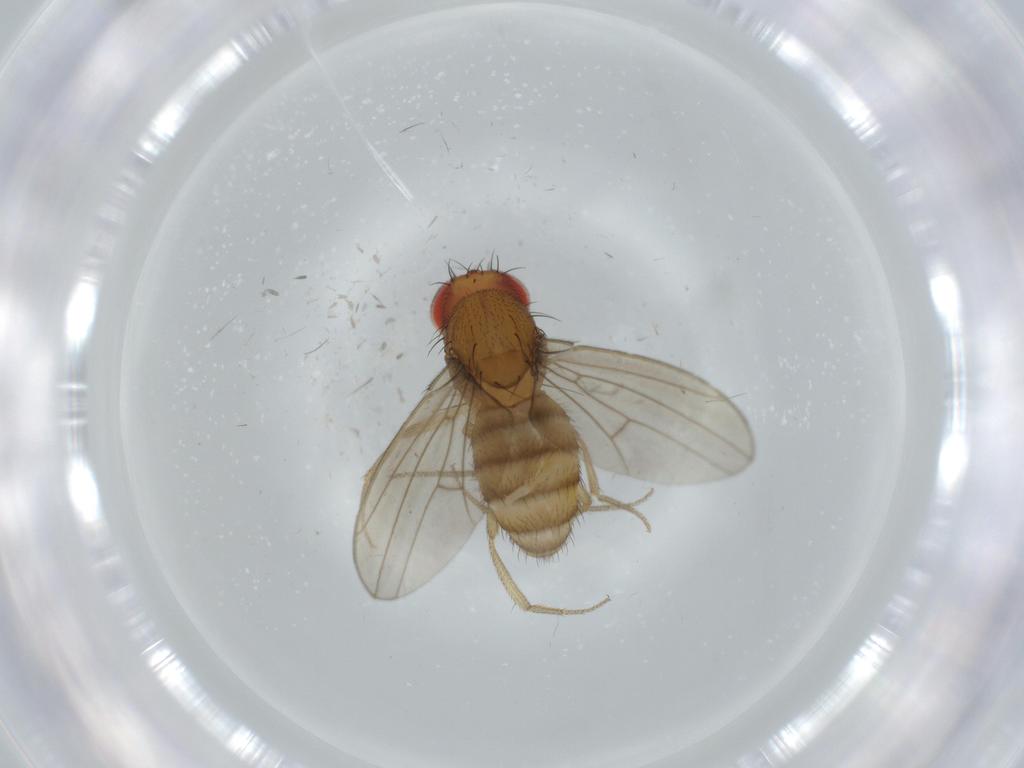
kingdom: Animalia
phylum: Arthropoda
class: Insecta
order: Diptera
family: Drosophilidae
